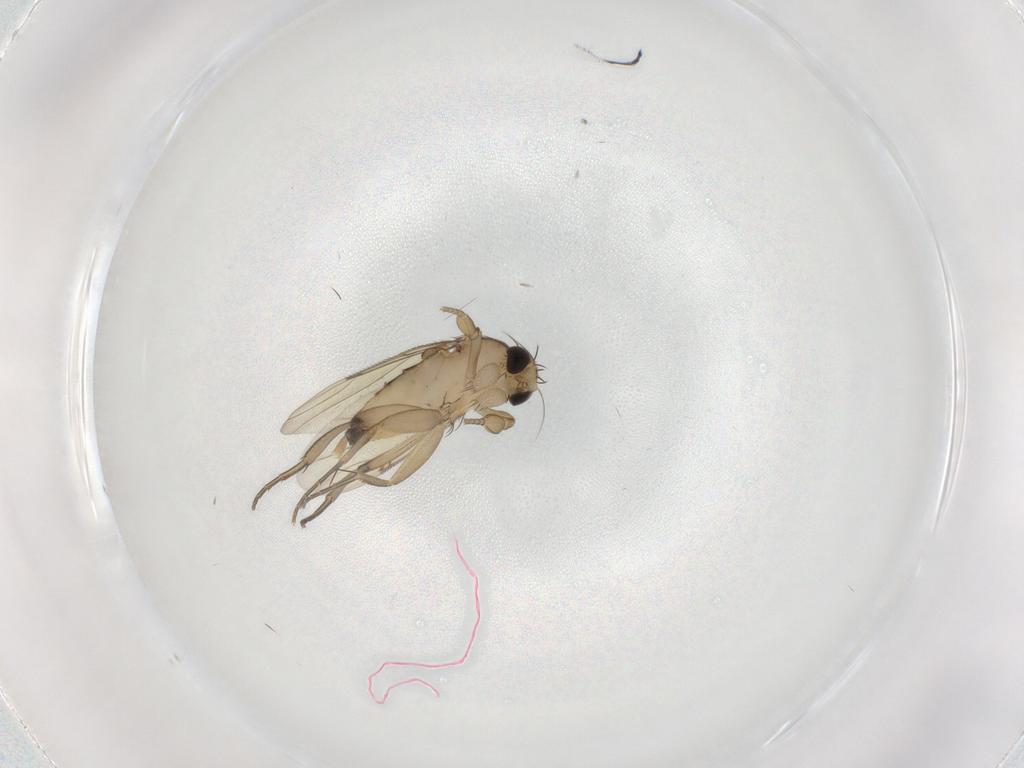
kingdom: Animalia
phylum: Arthropoda
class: Insecta
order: Diptera
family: Phoridae
